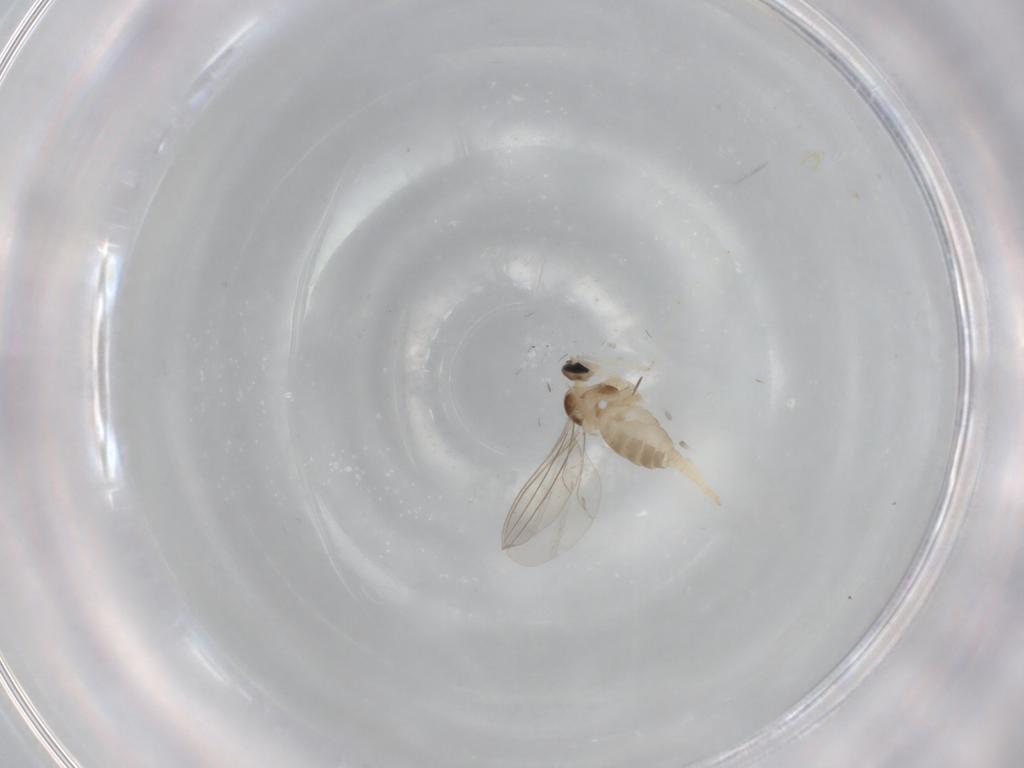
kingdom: Animalia
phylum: Arthropoda
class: Insecta
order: Diptera
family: Cecidomyiidae
